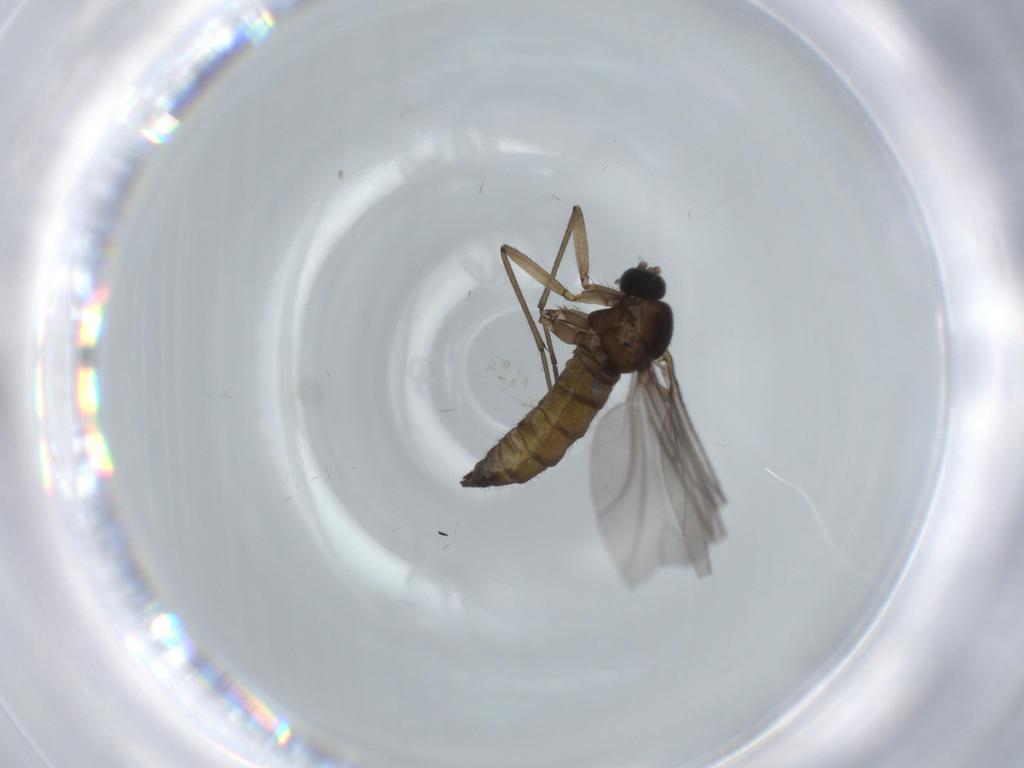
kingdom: Animalia
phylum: Arthropoda
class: Insecta
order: Diptera
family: Sciaridae
